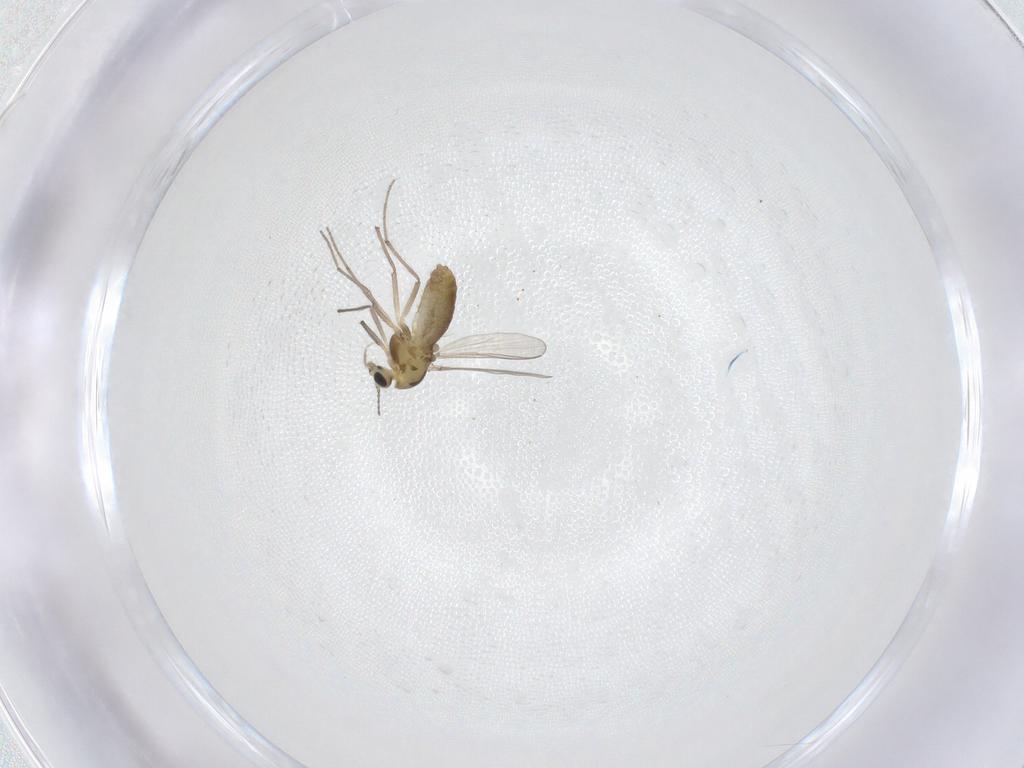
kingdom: Animalia
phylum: Arthropoda
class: Insecta
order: Diptera
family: Chironomidae
